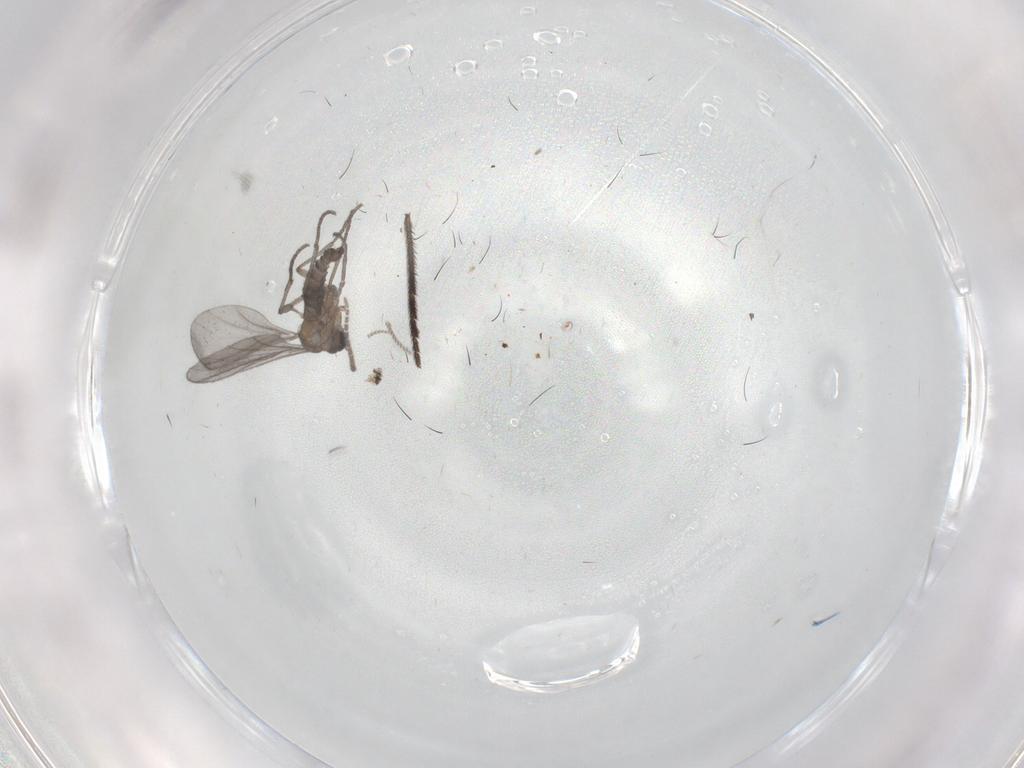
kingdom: Animalia
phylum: Arthropoda
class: Insecta
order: Diptera
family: Sciaridae
